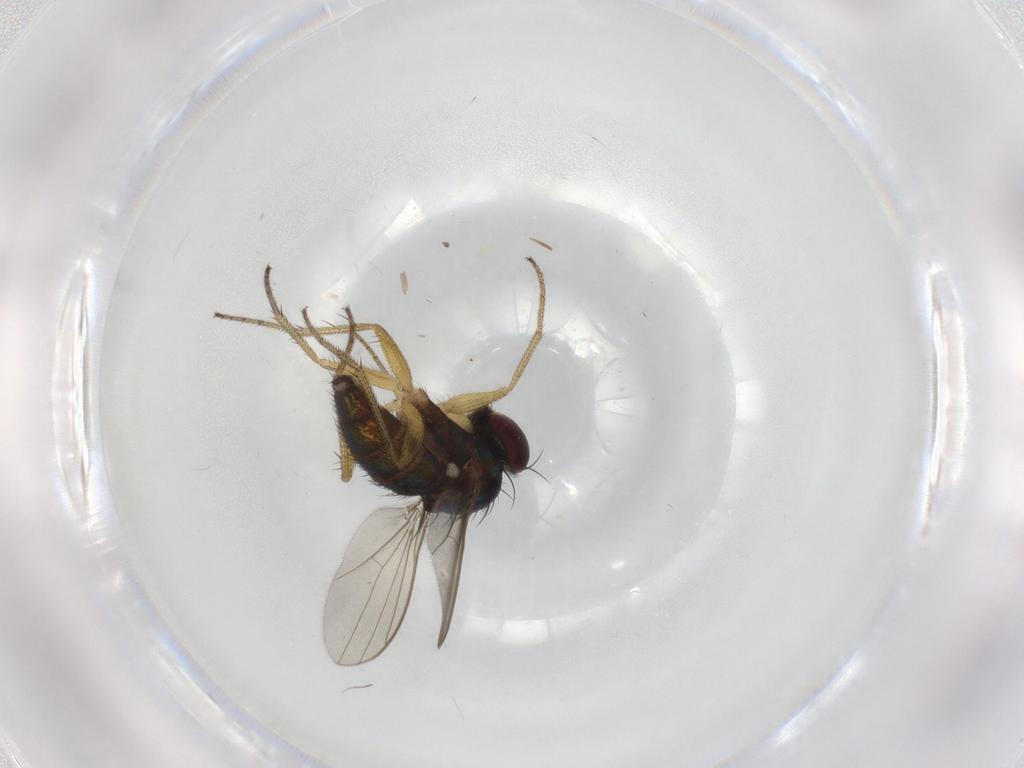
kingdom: Animalia
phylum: Arthropoda
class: Insecta
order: Diptera
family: Dolichopodidae
